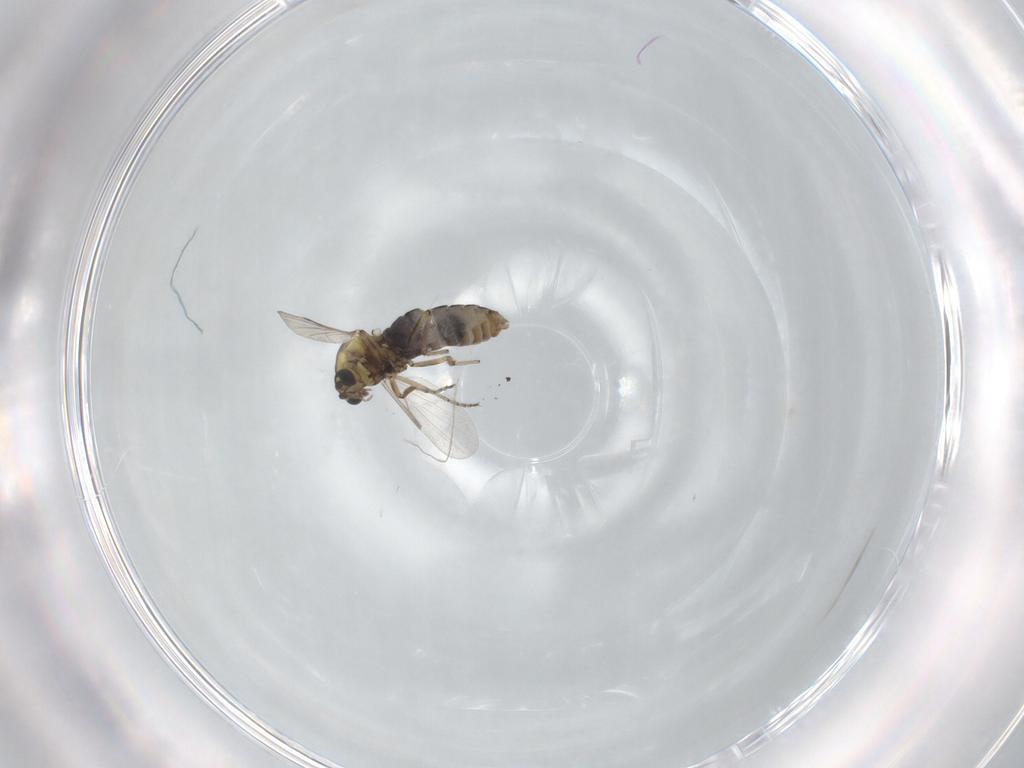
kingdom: Animalia
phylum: Arthropoda
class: Insecta
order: Diptera
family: Ceratopogonidae
